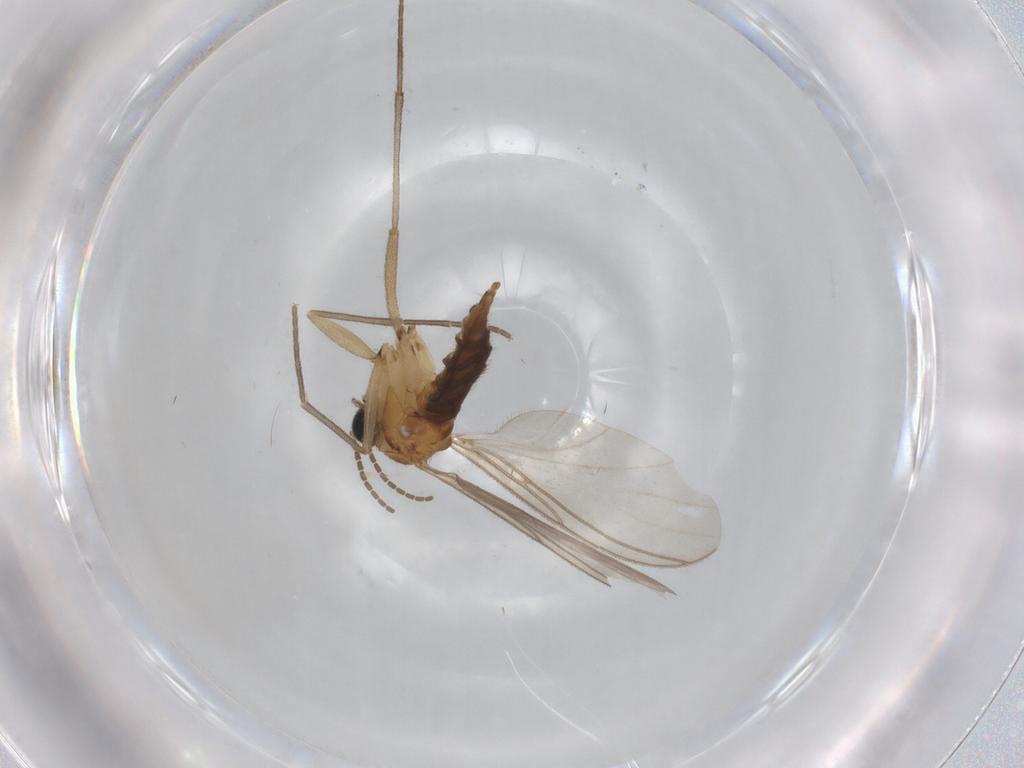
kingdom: Animalia
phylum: Arthropoda
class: Insecta
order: Diptera
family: Sciaridae
